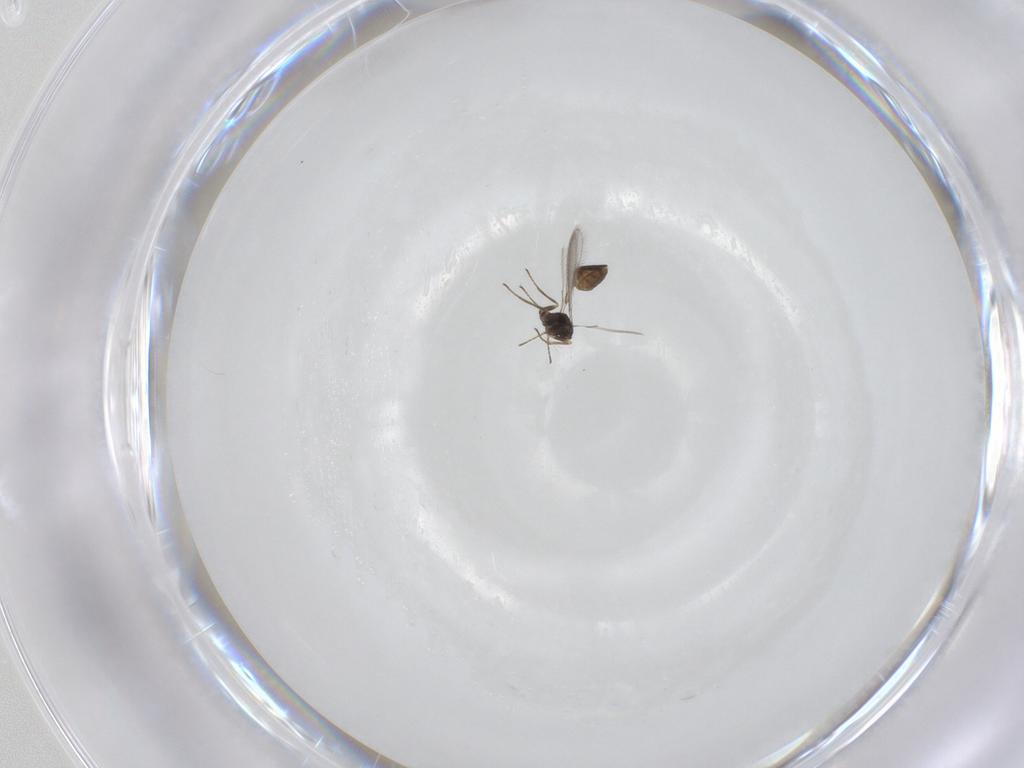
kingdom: Animalia
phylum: Arthropoda
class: Insecta
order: Hymenoptera
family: Mymaridae
